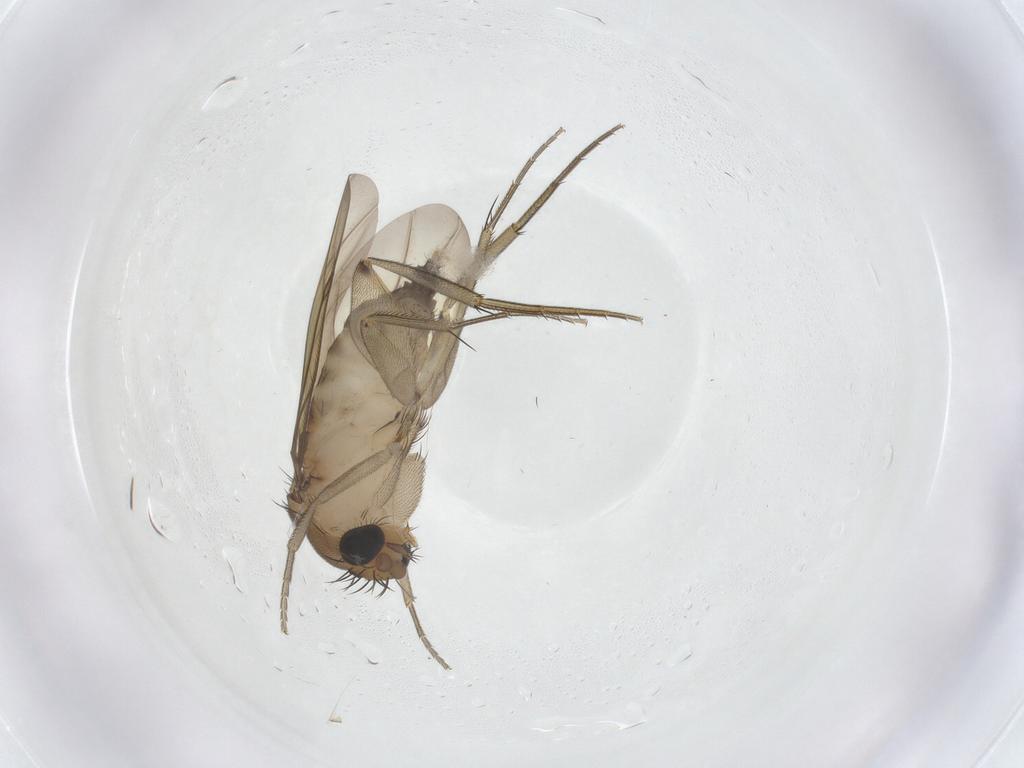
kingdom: Animalia
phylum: Arthropoda
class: Insecta
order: Diptera
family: Phoridae
